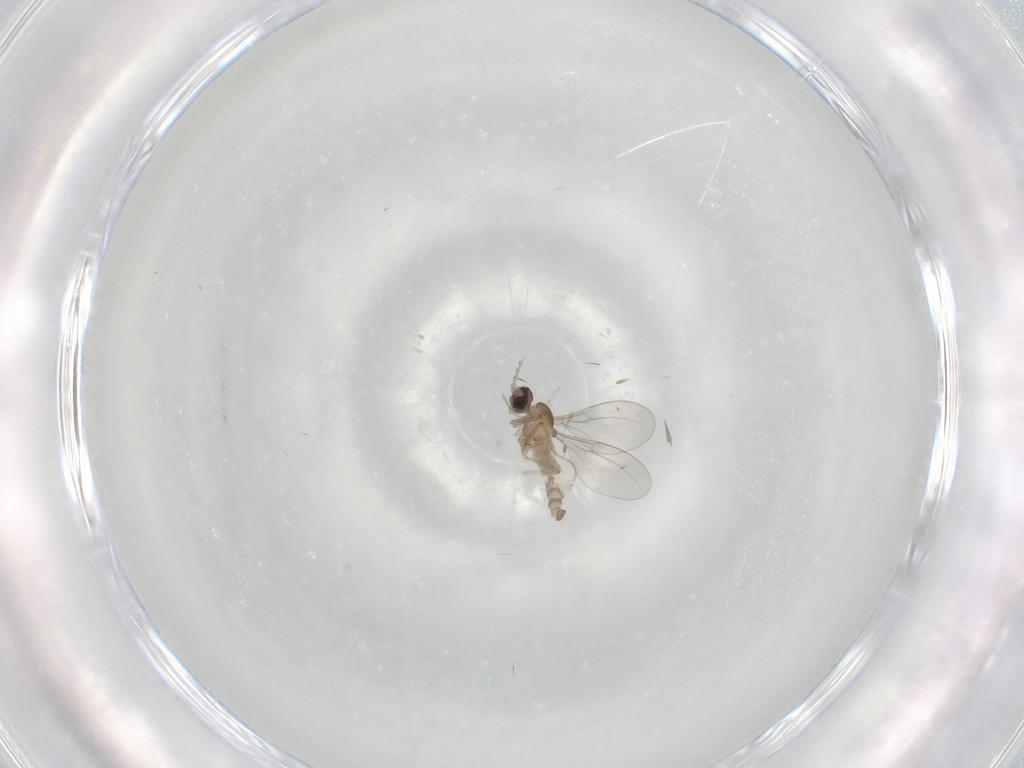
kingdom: Animalia
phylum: Arthropoda
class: Insecta
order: Diptera
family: Cecidomyiidae
